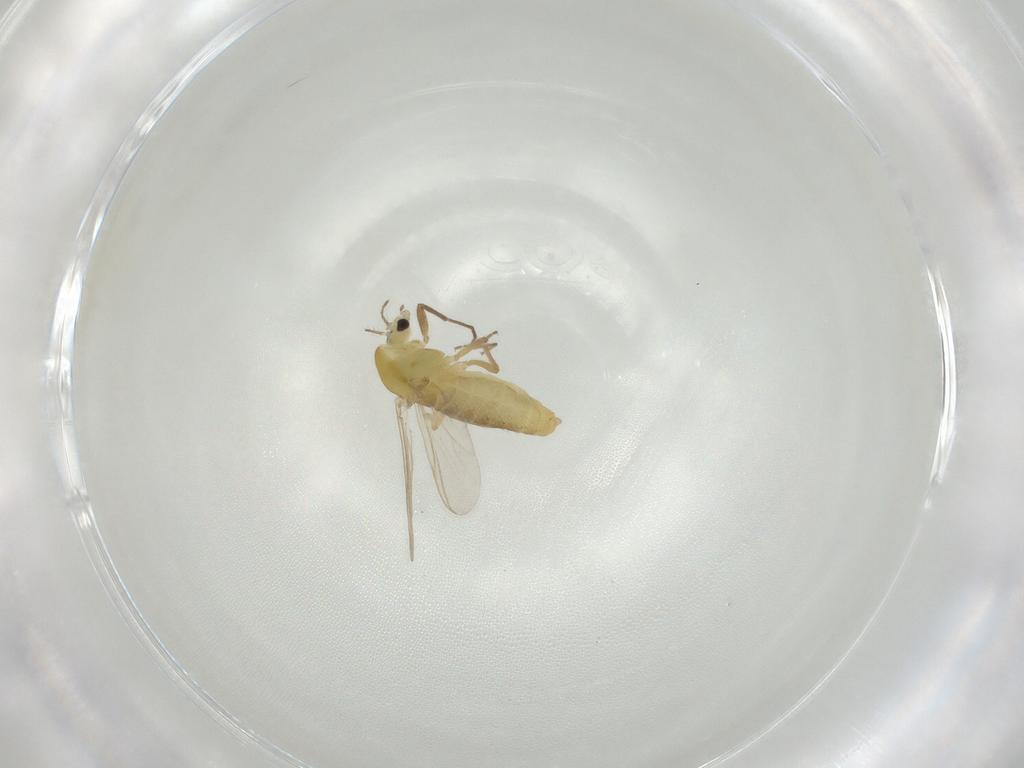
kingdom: Animalia
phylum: Arthropoda
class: Insecta
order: Diptera
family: Chironomidae
